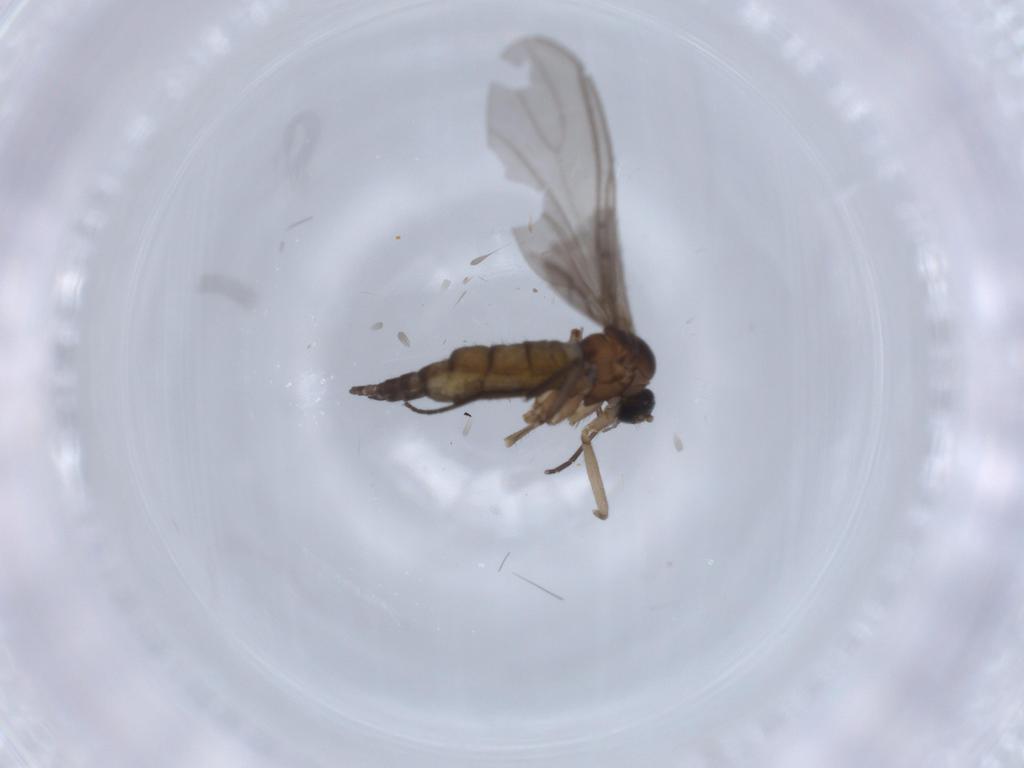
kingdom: Animalia
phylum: Arthropoda
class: Insecta
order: Diptera
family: Sciaridae
